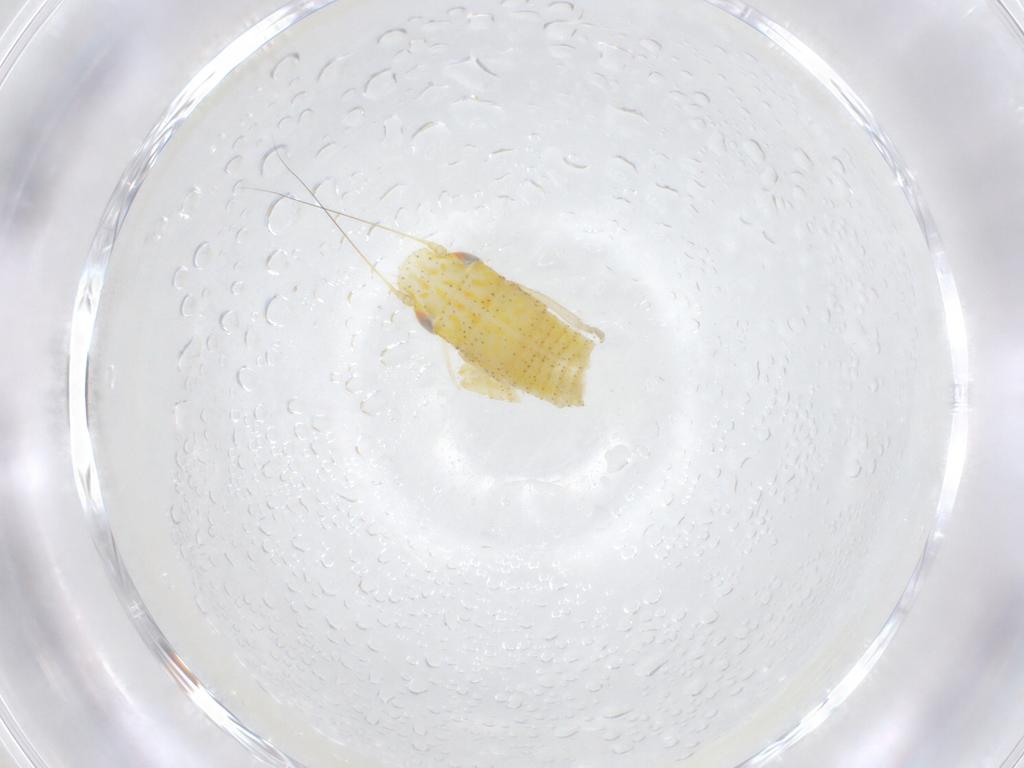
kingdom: Animalia
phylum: Arthropoda
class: Insecta
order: Hemiptera
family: Cicadellidae
